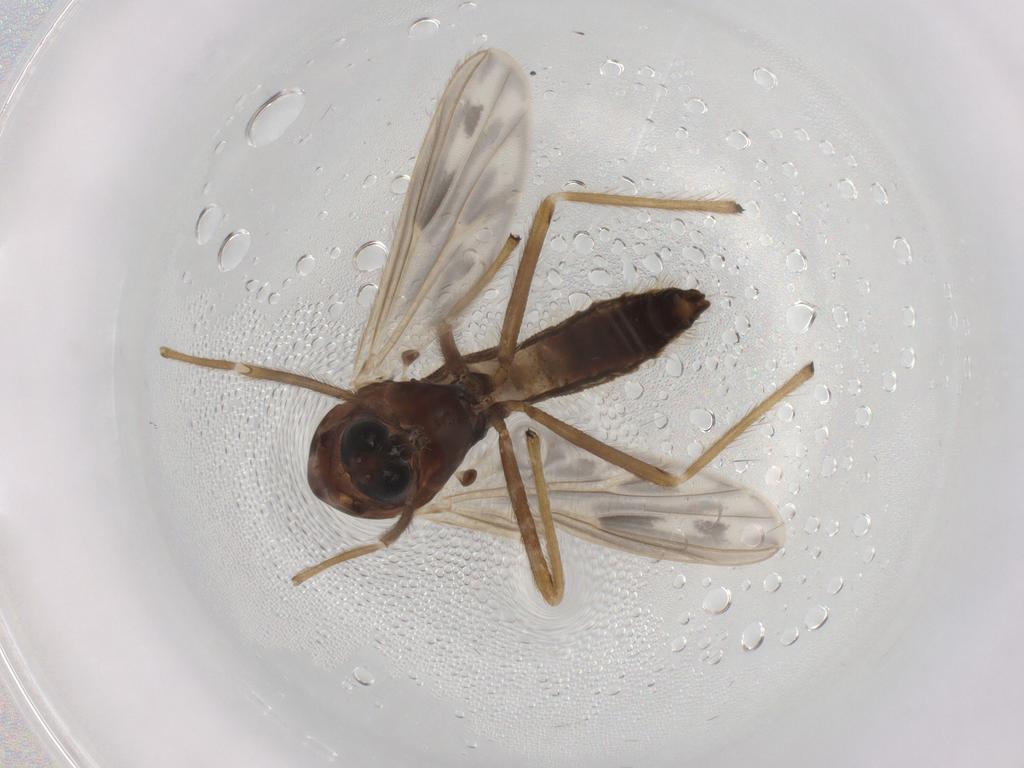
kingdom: Animalia
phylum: Arthropoda
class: Insecta
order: Diptera
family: Chironomidae
